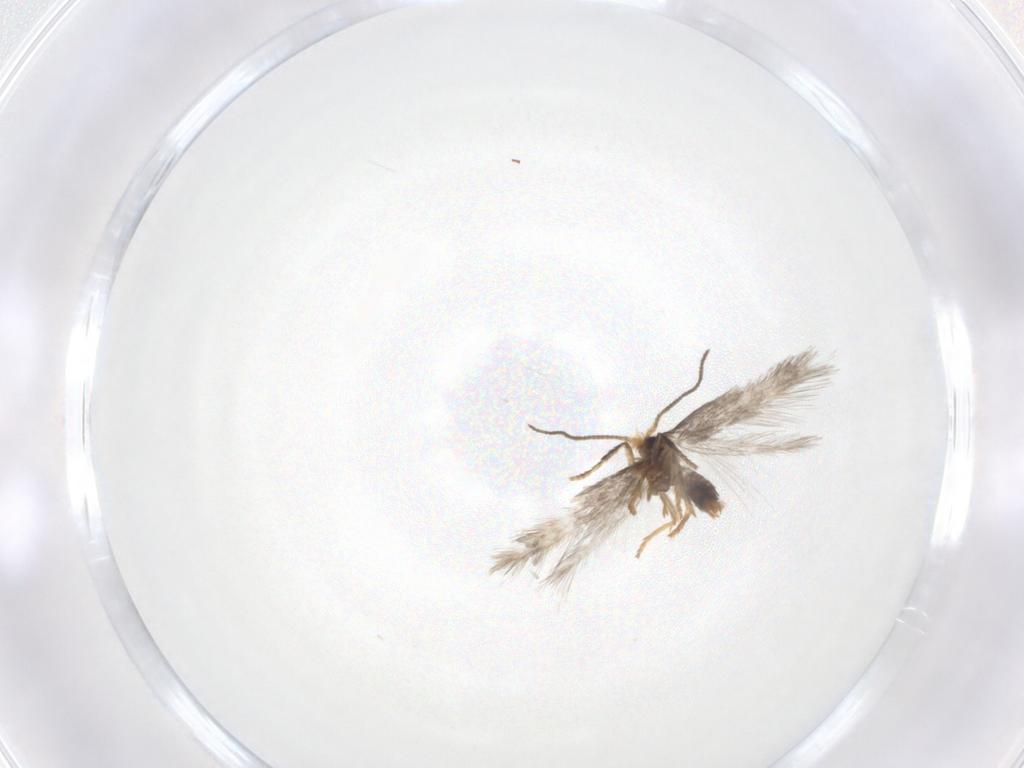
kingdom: Animalia
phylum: Arthropoda
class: Insecta
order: Lepidoptera
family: Nepticulidae
